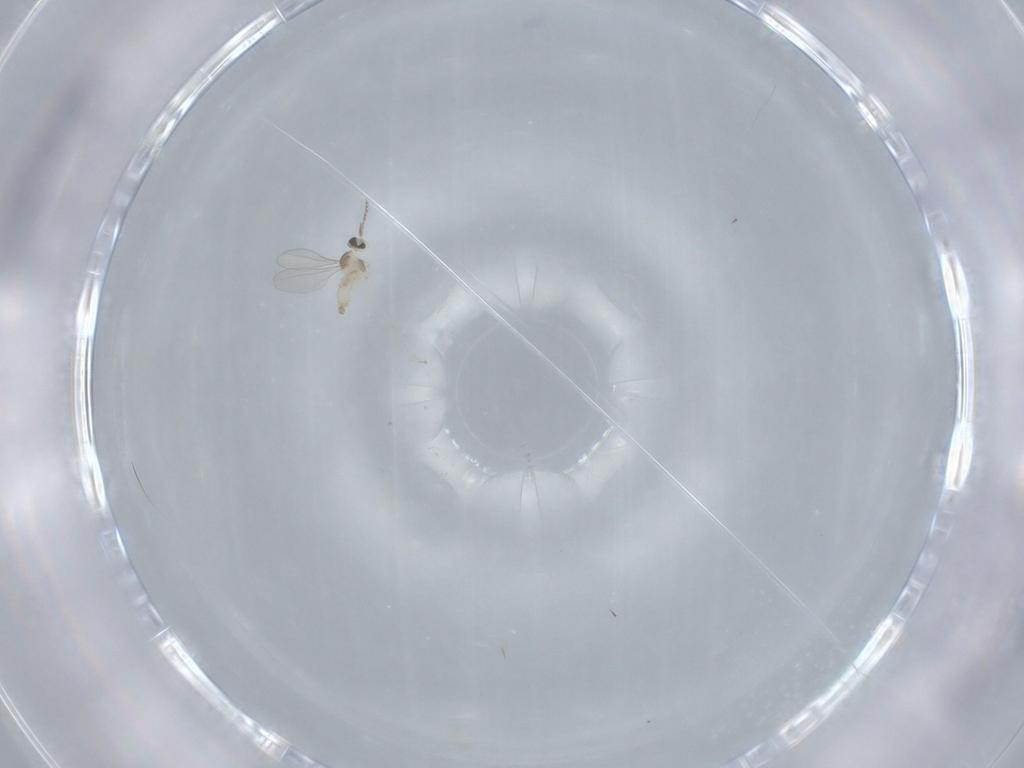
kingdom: Animalia
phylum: Arthropoda
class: Insecta
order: Diptera
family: Cecidomyiidae
